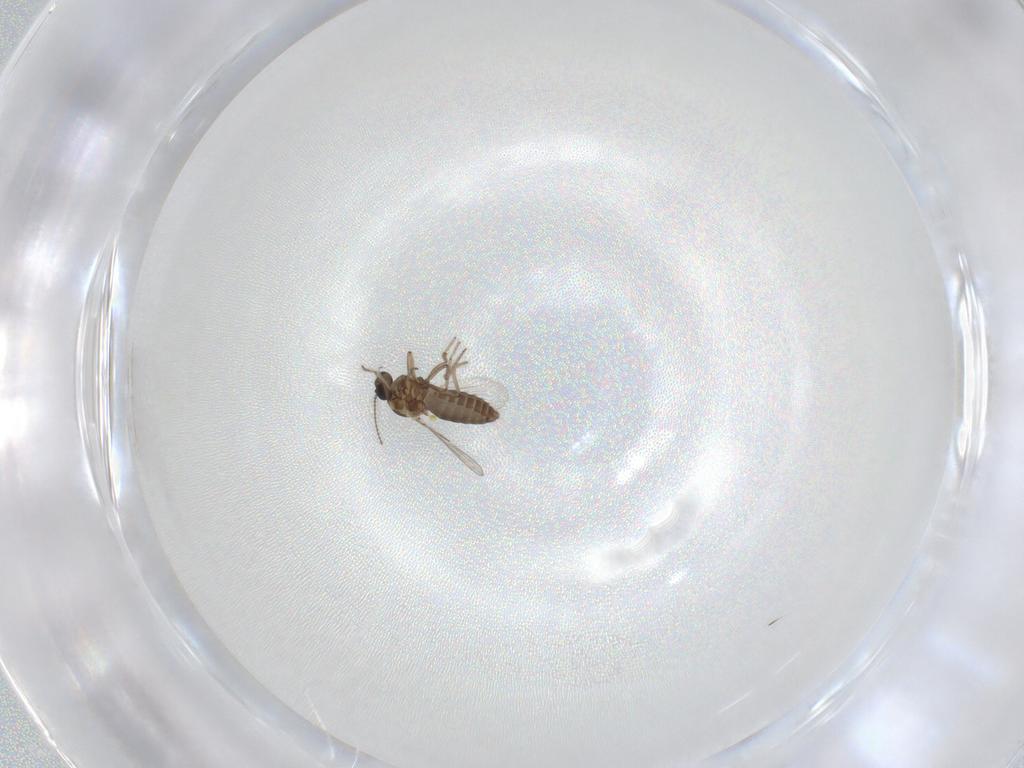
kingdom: Animalia
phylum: Arthropoda
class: Insecta
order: Diptera
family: Ceratopogonidae
